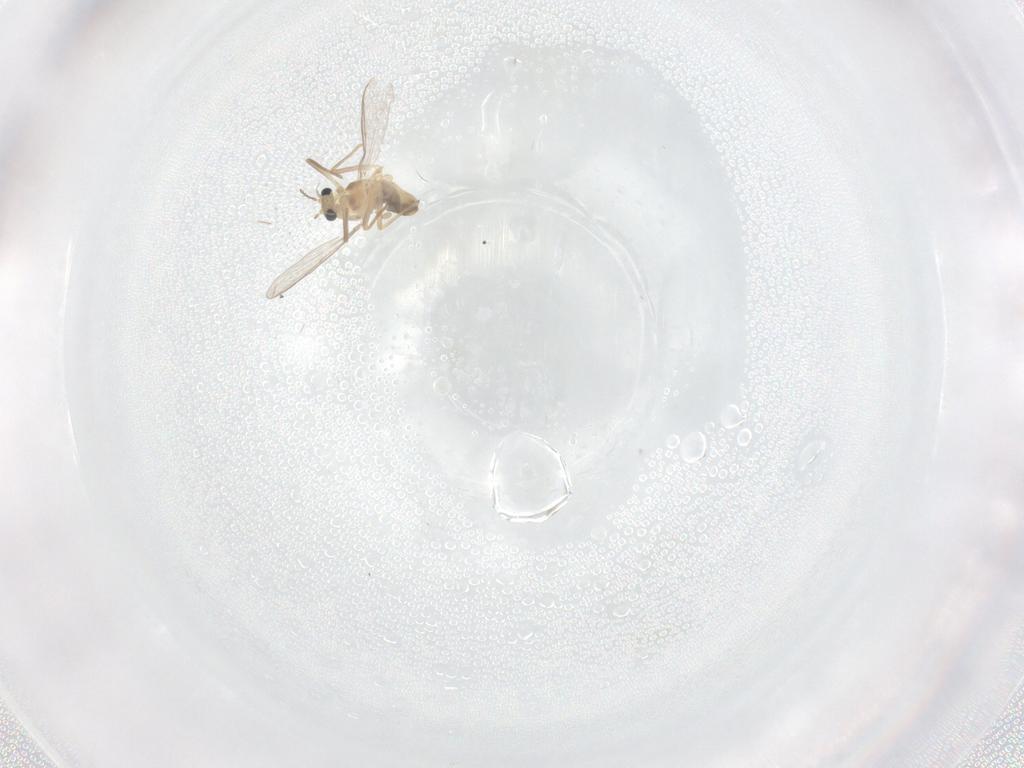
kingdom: Animalia
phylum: Arthropoda
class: Insecta
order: Diptera
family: Chironomidae
